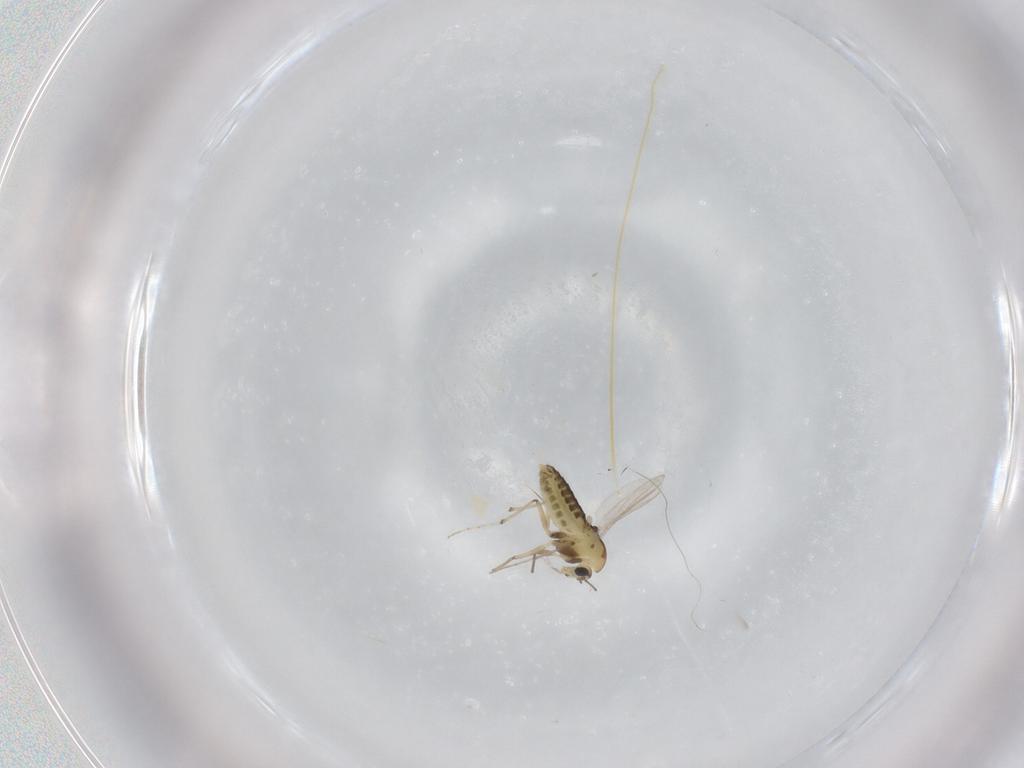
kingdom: Animalia
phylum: Arthropoda
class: Insecta
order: Diptera
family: Chironomidae
